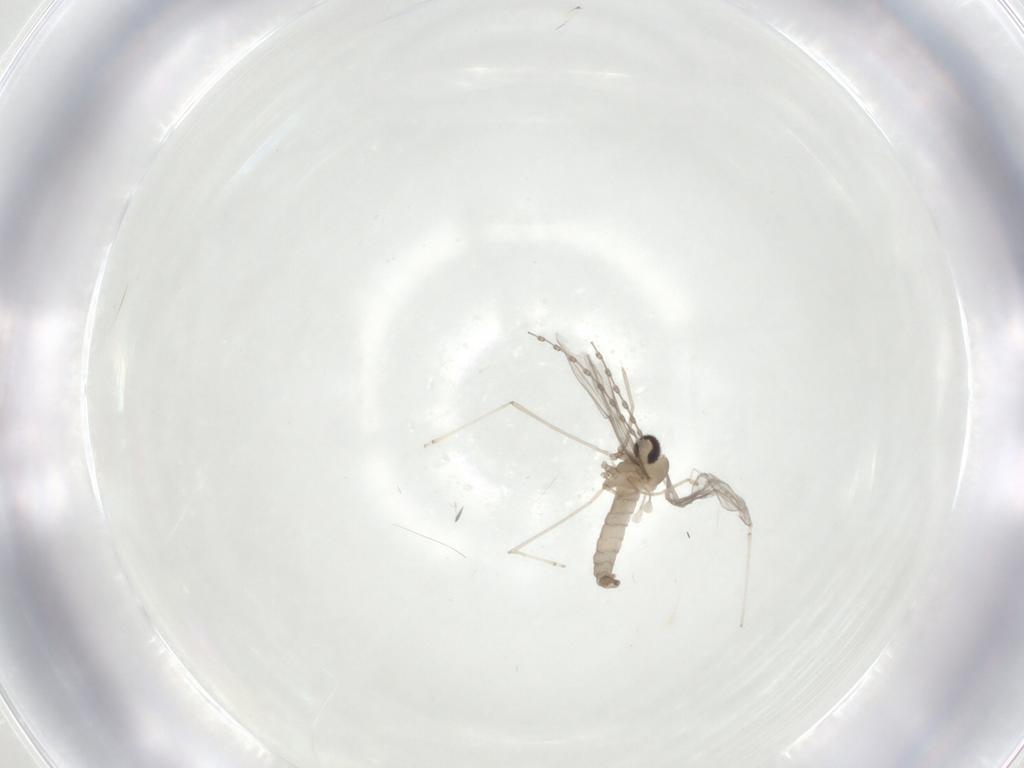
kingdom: Animalia
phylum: Arthropoda
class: Insecta
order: Diptera
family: Cecidomyiidae
